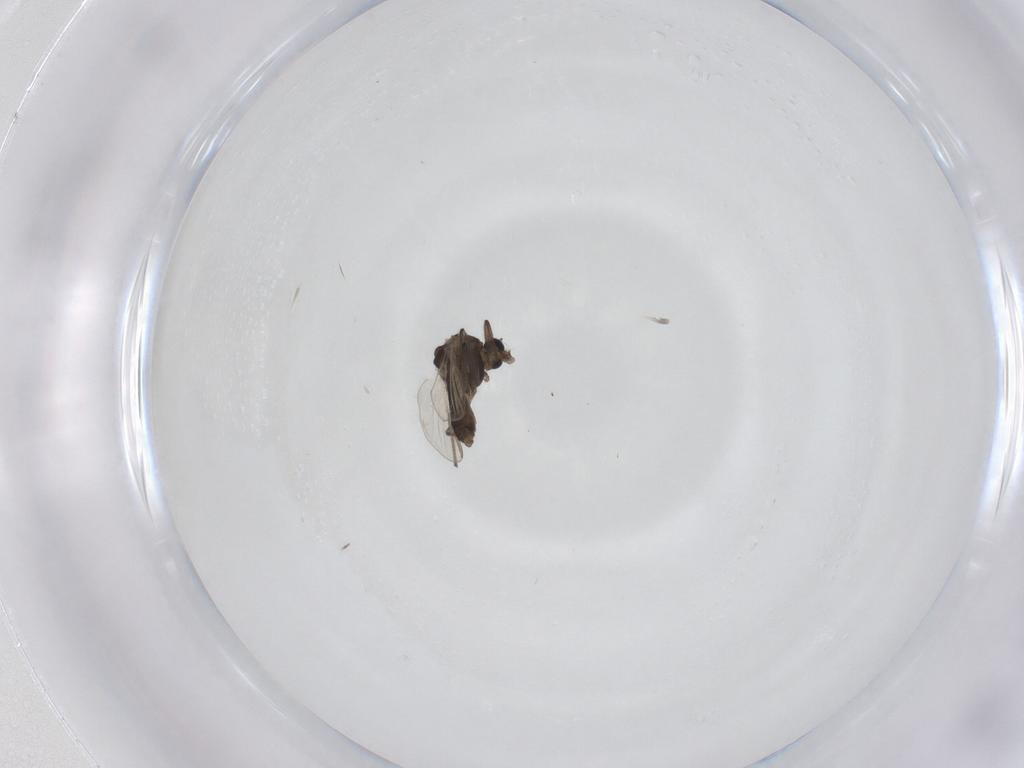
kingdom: Animalia
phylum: Arthropoda
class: Insecta
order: Diptera
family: Chironomidae
